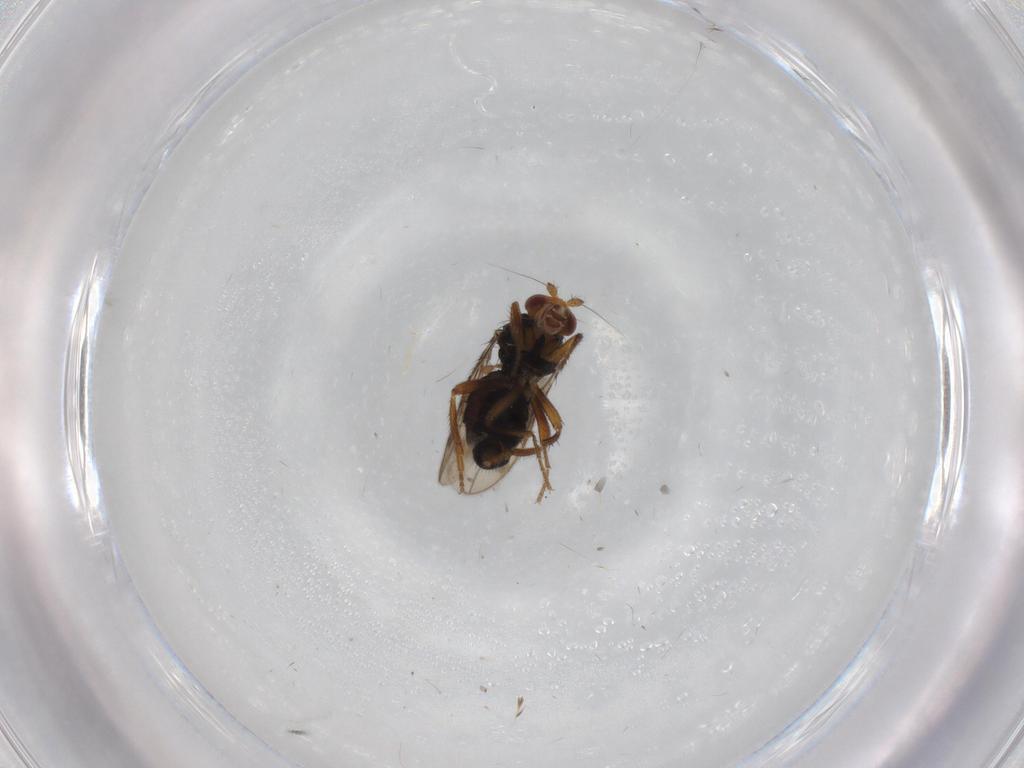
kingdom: Animalia
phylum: Arthropoda
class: Insecta
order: Diptera
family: Sphaeroceridae
